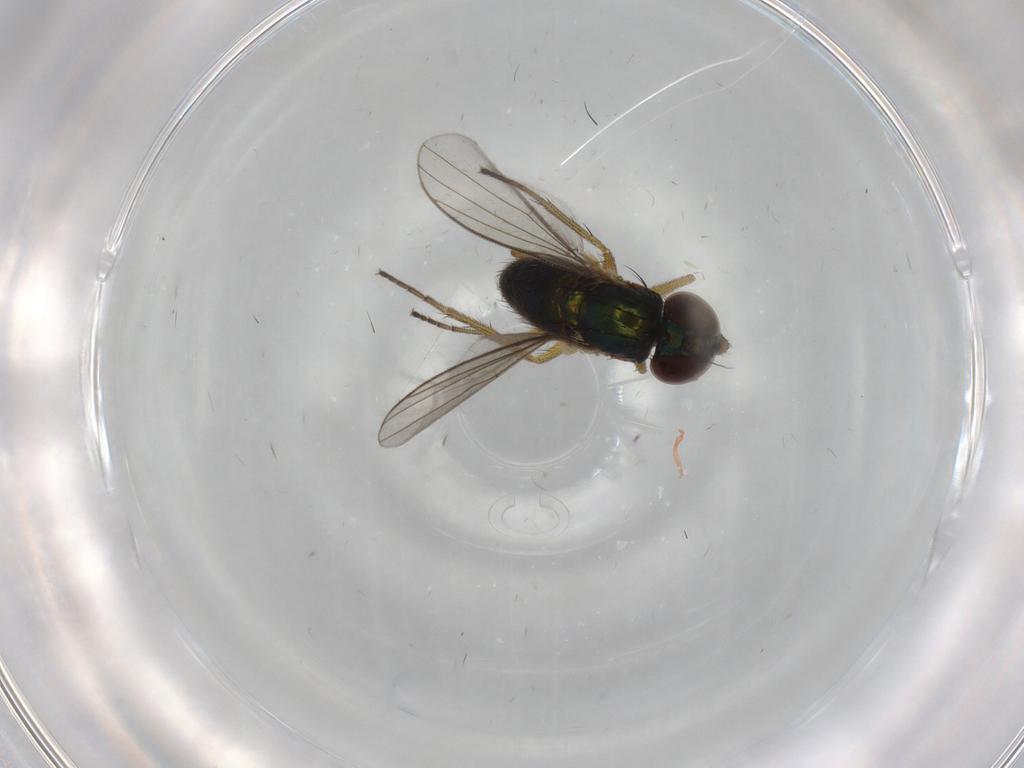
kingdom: Animalia
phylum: Arthropoda
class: Insecta
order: Diptera
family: Ceratopogonidae
